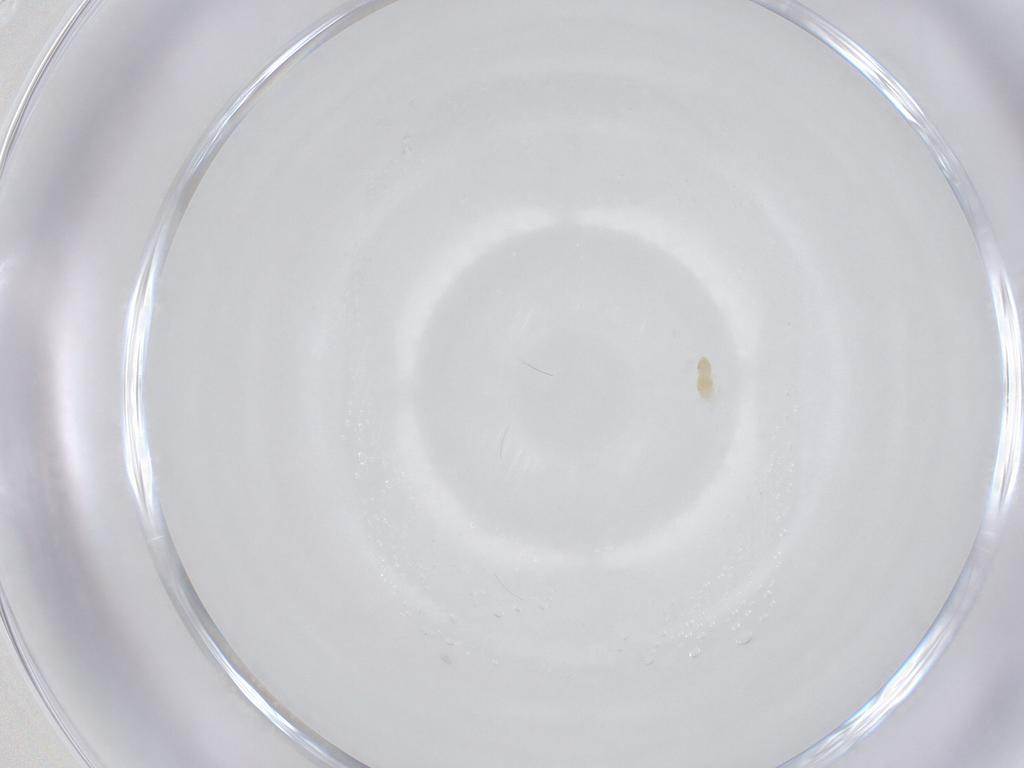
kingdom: Animalia
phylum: Arthropoda
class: Arachnida
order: Trombidiformes
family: Eupodidae
